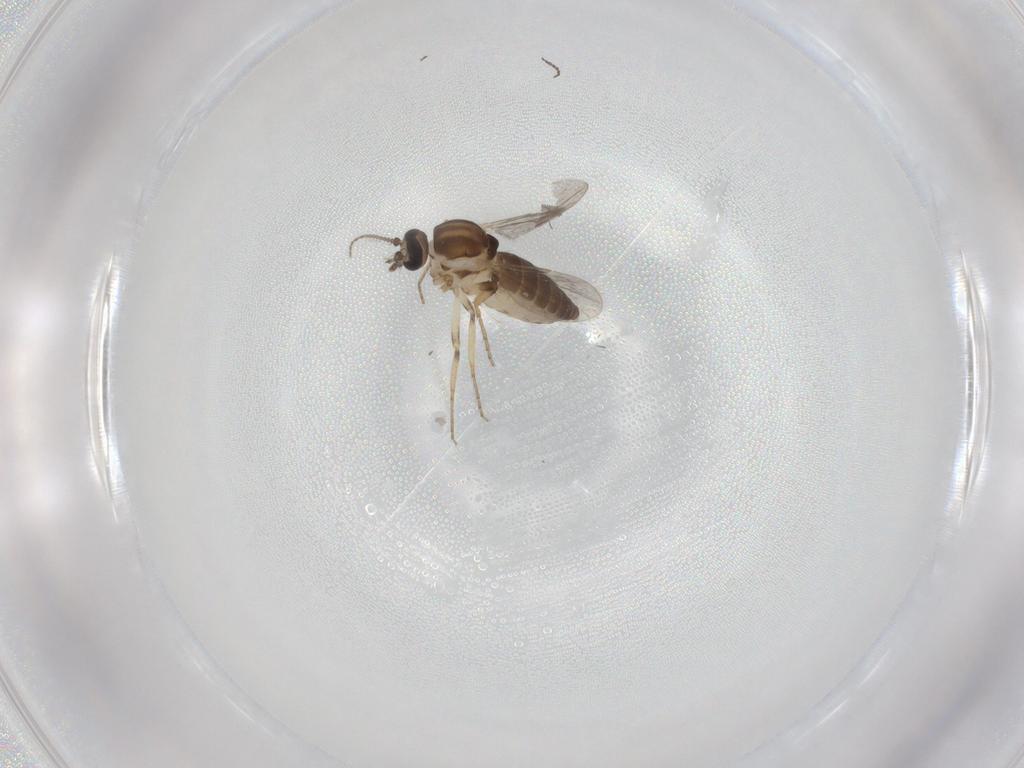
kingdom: Animalia
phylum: Arthropoda
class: Insecta
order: Diptera
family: Ceratopogonidae
